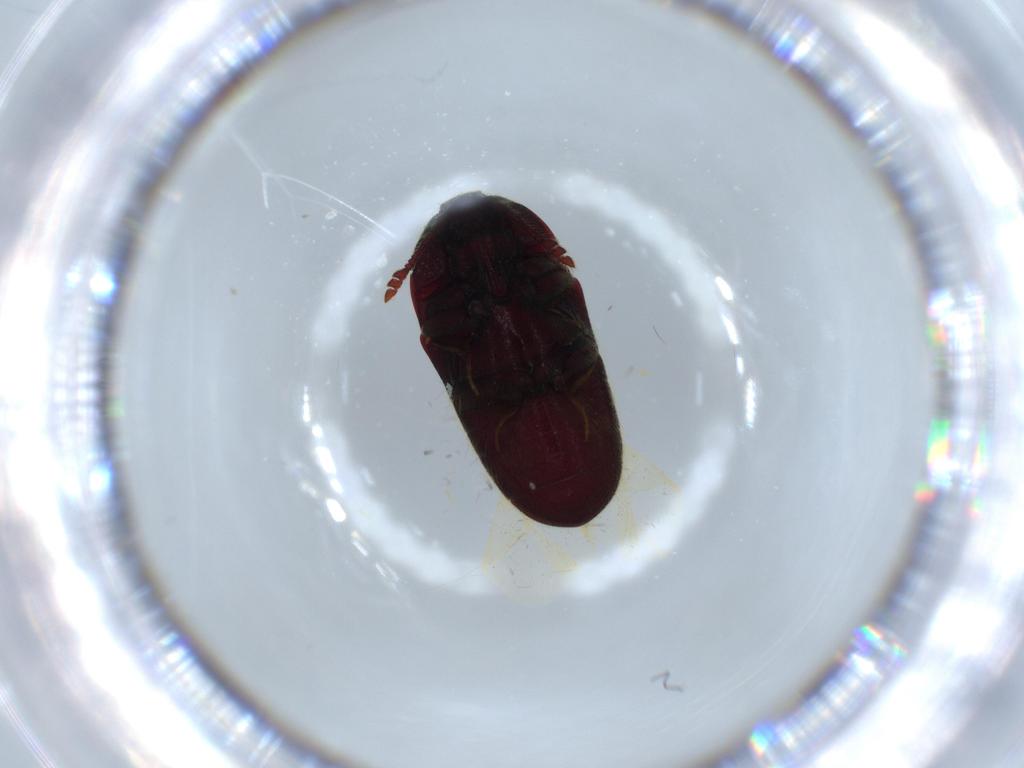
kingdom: Animalia
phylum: Arthropoda
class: Insecta
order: Coleoptera
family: Throscidae
